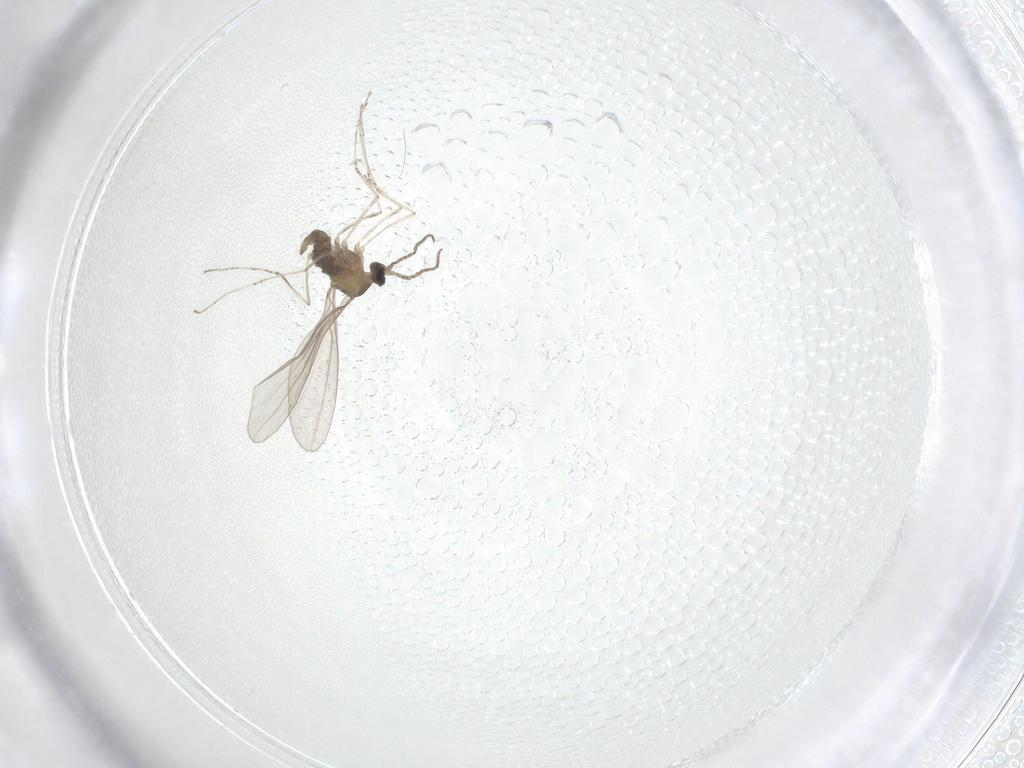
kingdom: Animalia
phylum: Arthropoda
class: Insecta
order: Diptera
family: Cecidomyiidae
